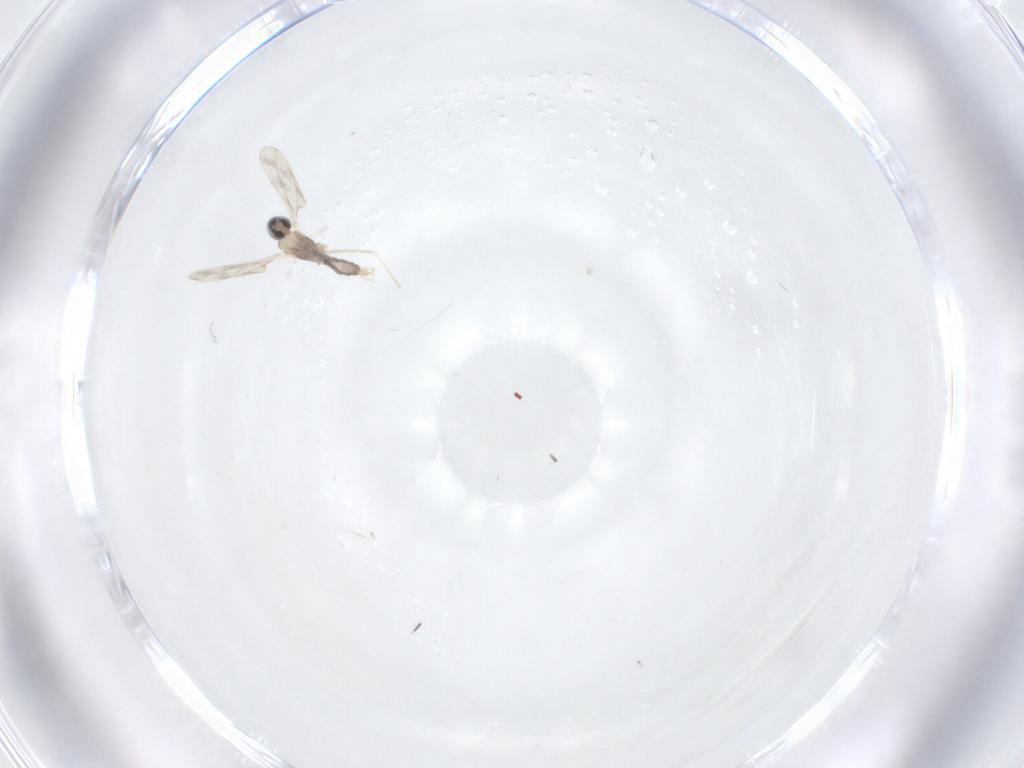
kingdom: Animalia
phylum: Arthropoda
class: Insecta
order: Diptera
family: Cecidomyiidae
